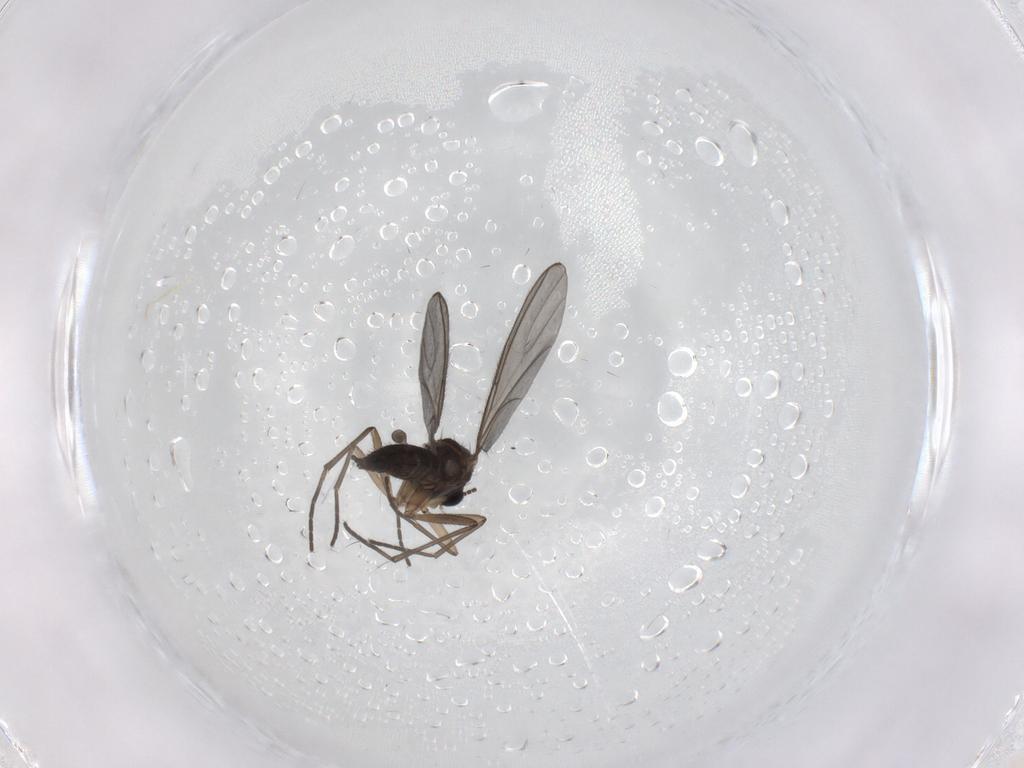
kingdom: Animalia
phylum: Arthropoda
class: Insecta
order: Diptera
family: Sciaridae
